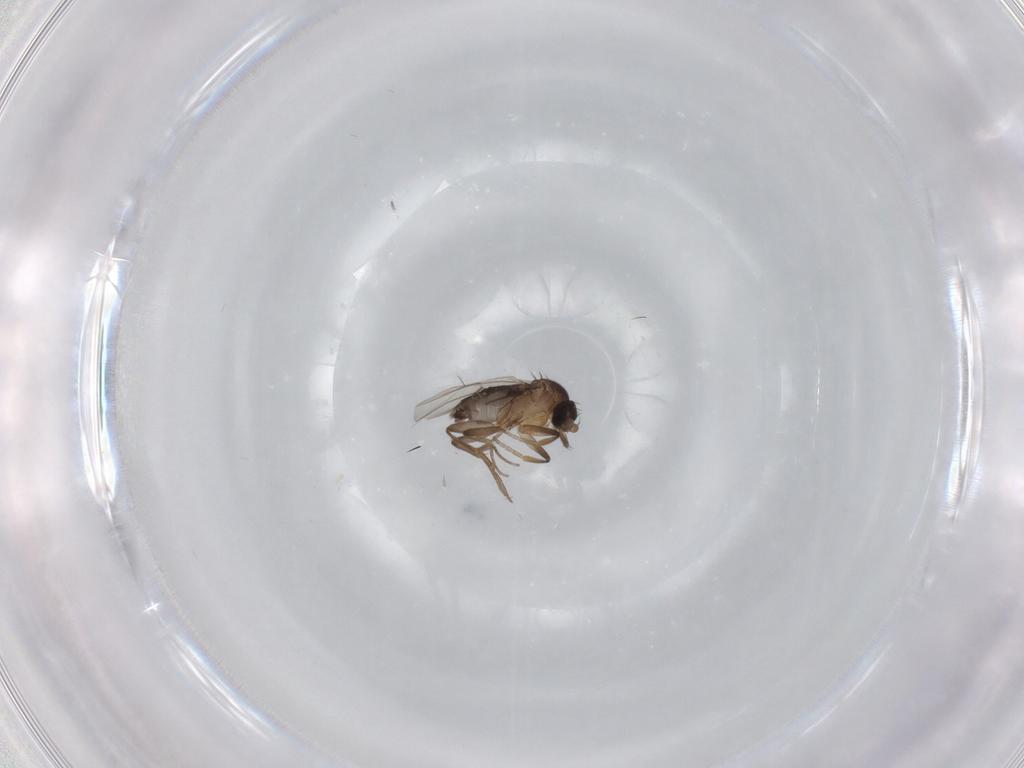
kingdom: Animalia
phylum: Arthropoda
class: Insecta
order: Diptera
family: Phoridae
